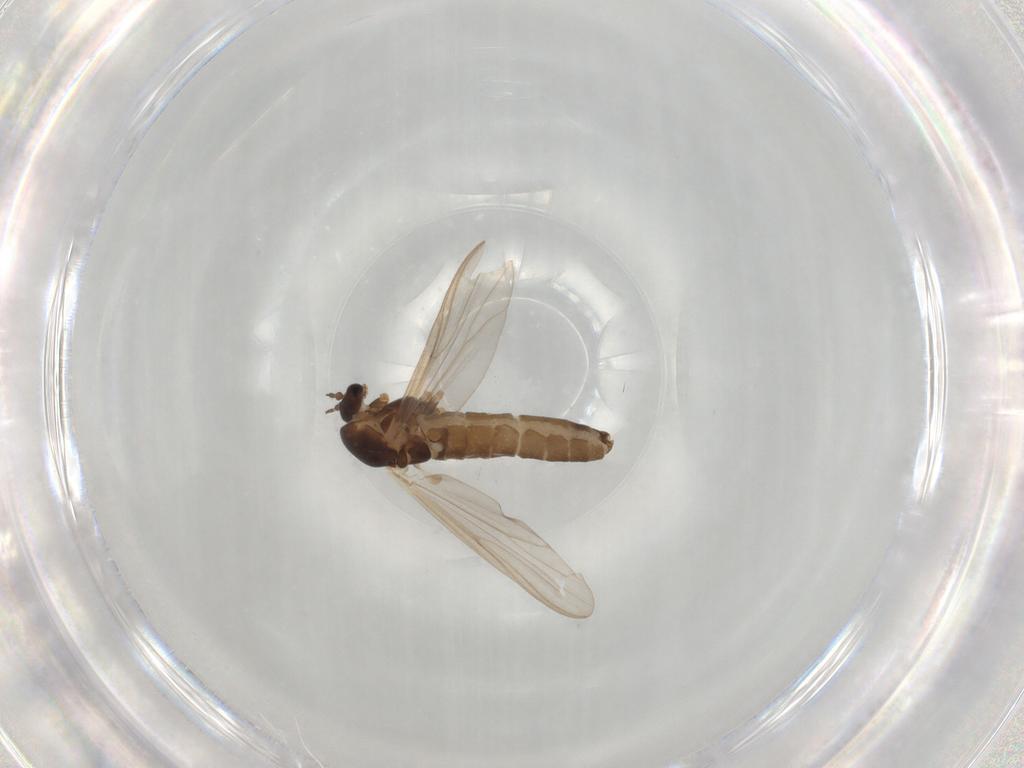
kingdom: Animalia
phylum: Arthropoda
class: Insecta
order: Diptera
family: Chironomidae
